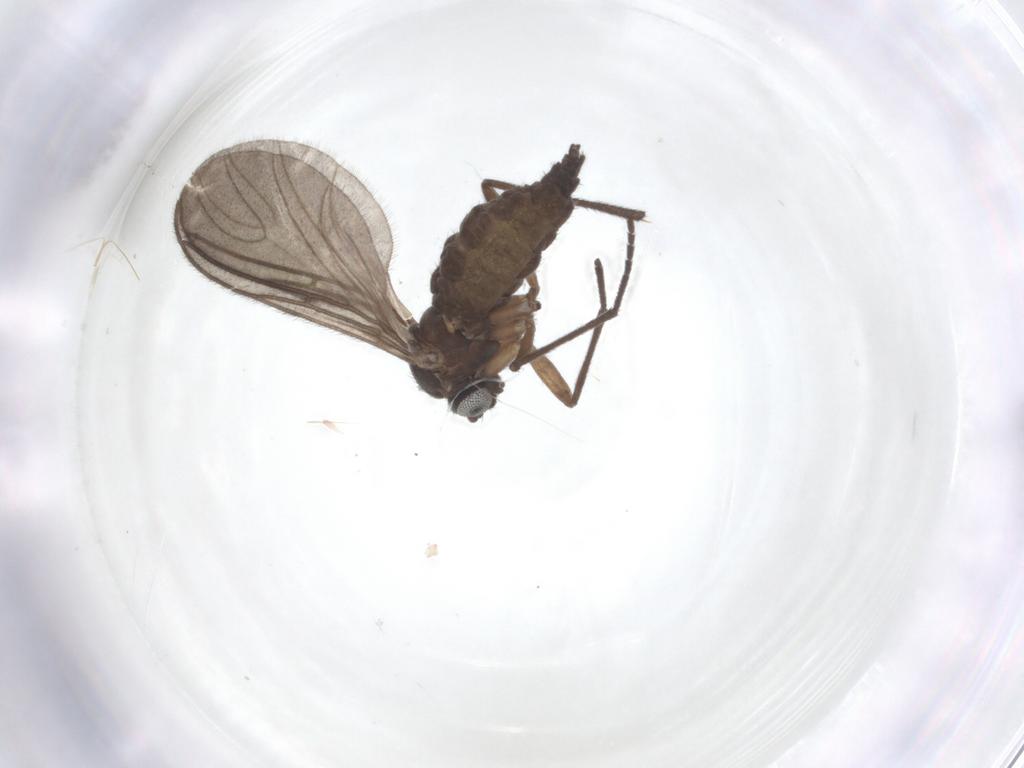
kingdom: Animalia
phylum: Arthropoda
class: Insecta
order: Diptera
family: Sciaridae
